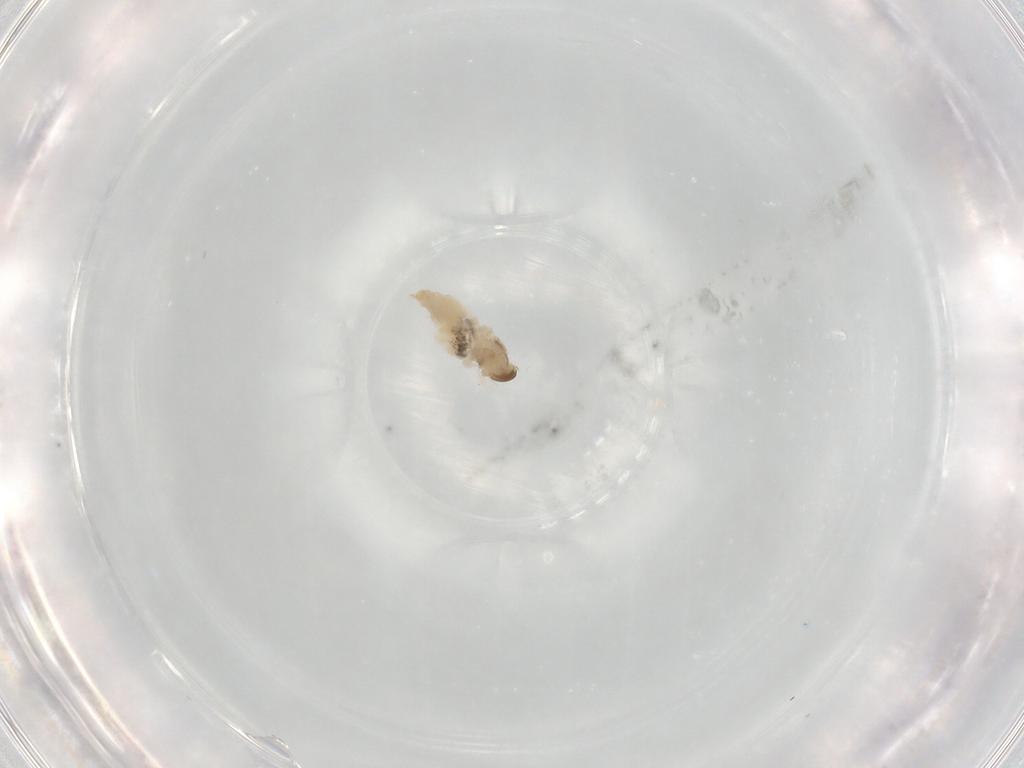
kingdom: Animalia
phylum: Arthropoda
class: Insecta
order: Diptera
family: Cecidomyiidae
